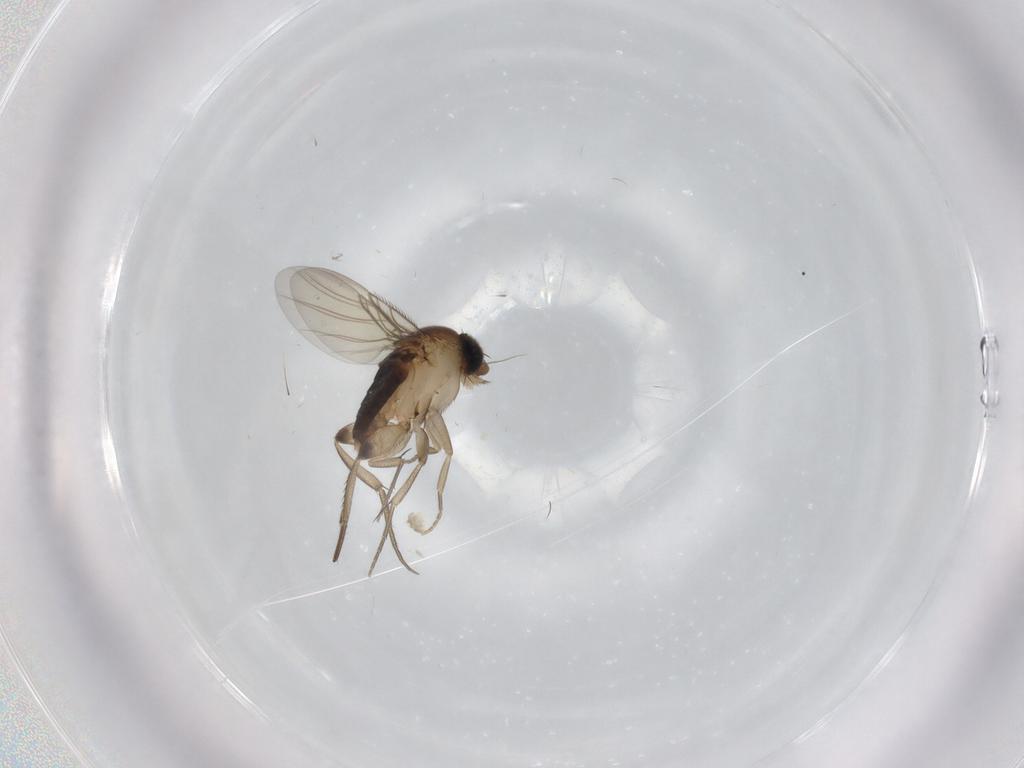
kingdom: Animalia
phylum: Arthropoda
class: Insecta
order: Diptera
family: Phoridae
